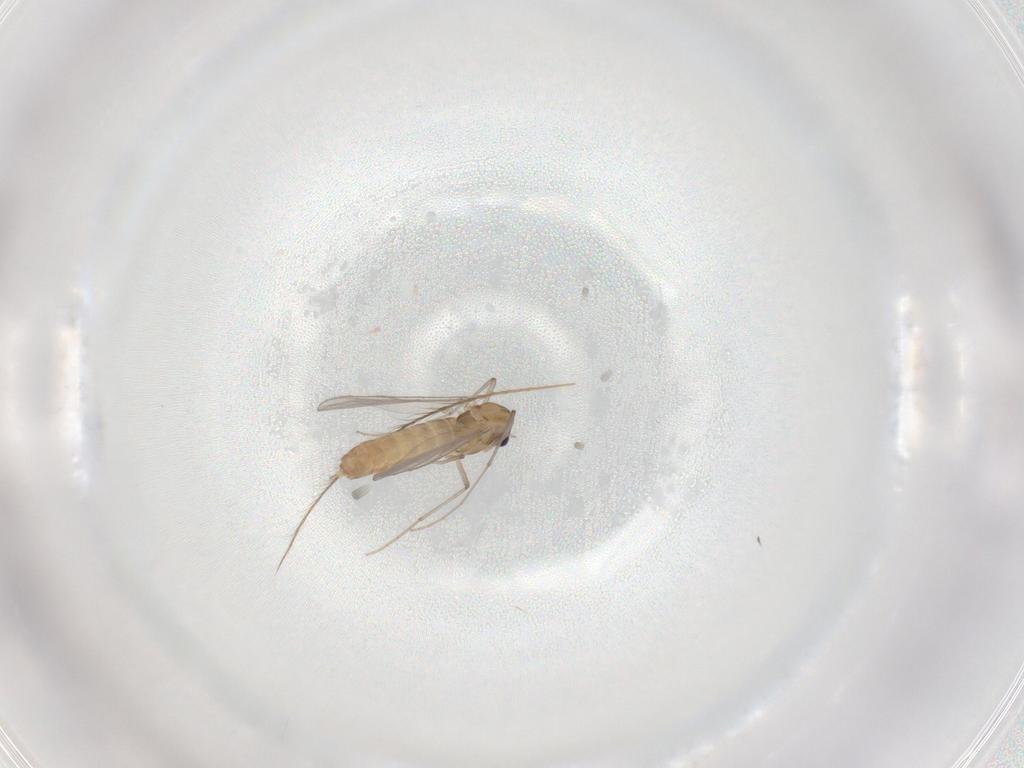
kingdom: Animalia
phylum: Arthropoda
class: Insecta
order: Diptera
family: Chironomidae
